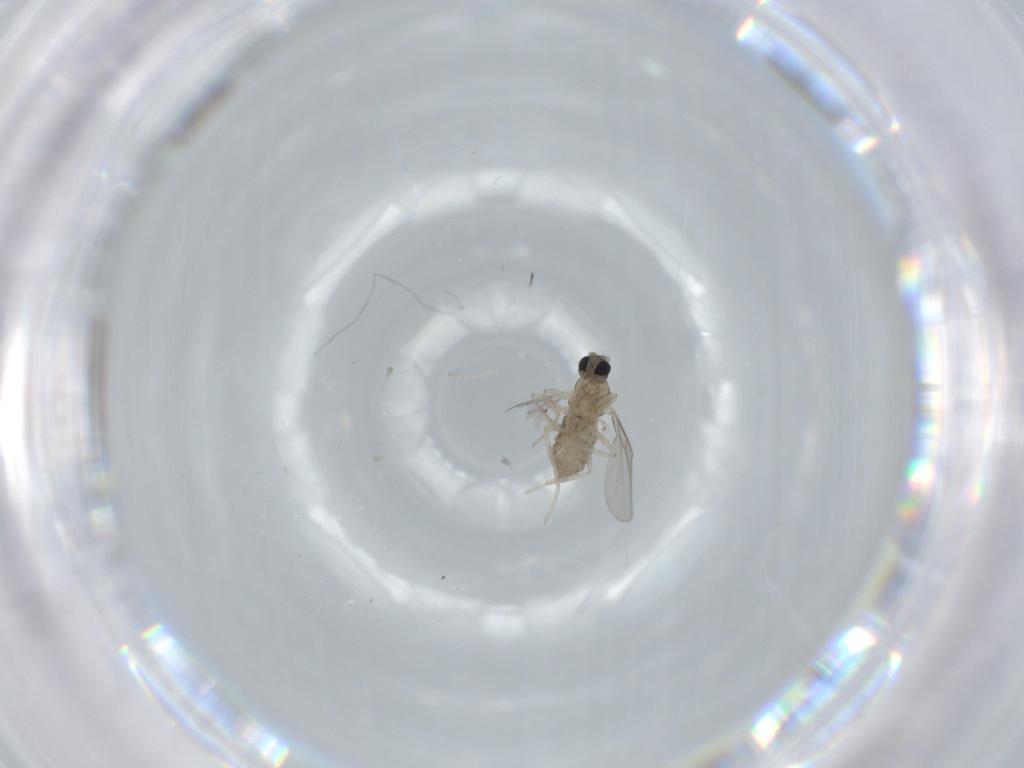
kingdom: Animalia
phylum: Arthropoda
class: Insecta
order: Diptera
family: Cecidomyiidae
